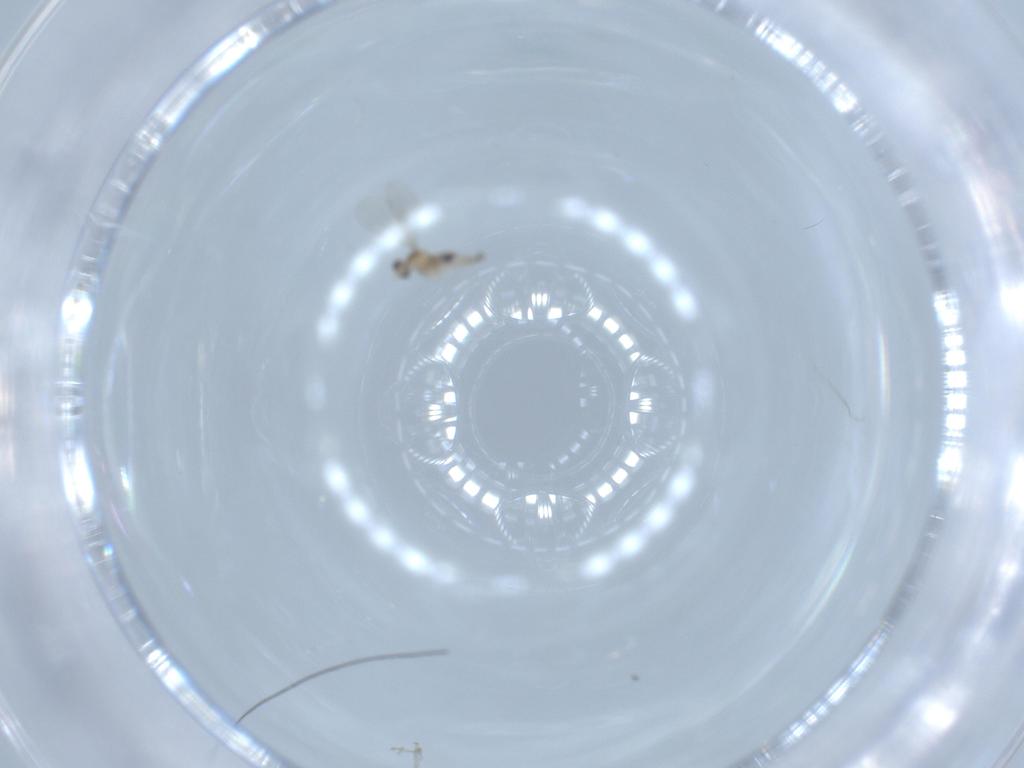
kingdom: Animalia
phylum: Arthropoda
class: Insecta
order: Diptera
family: Cecidomyiidae
